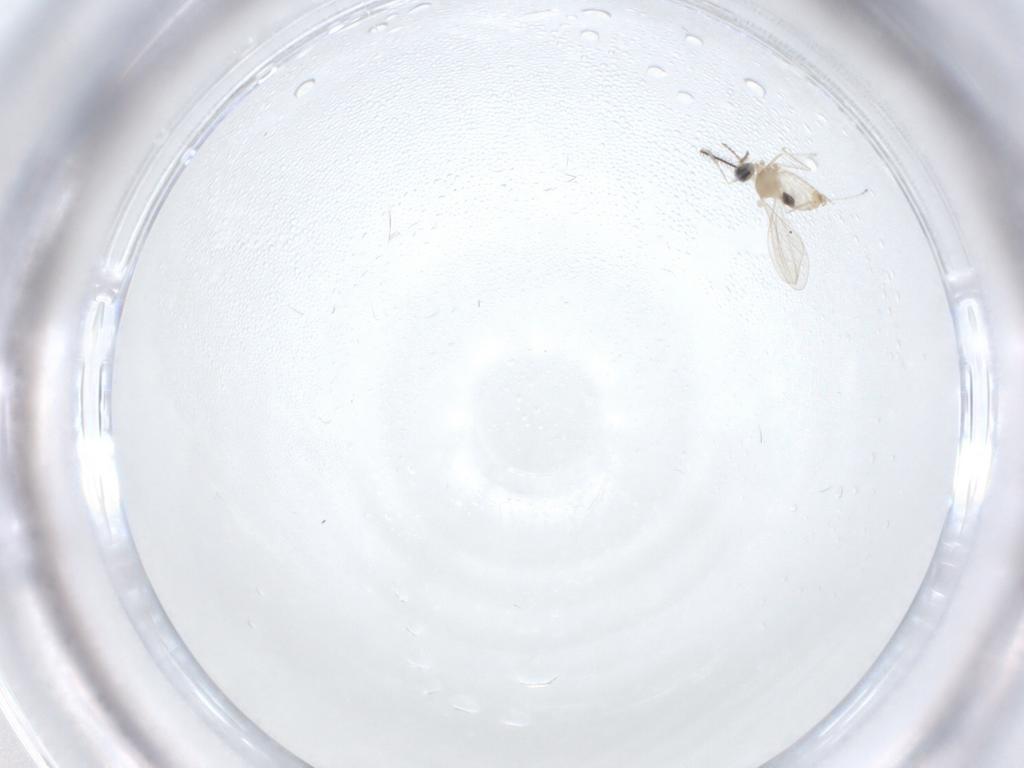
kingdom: Animalia
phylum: Arthropoda
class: Insecta
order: Diptera
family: Cecidomyiidae
